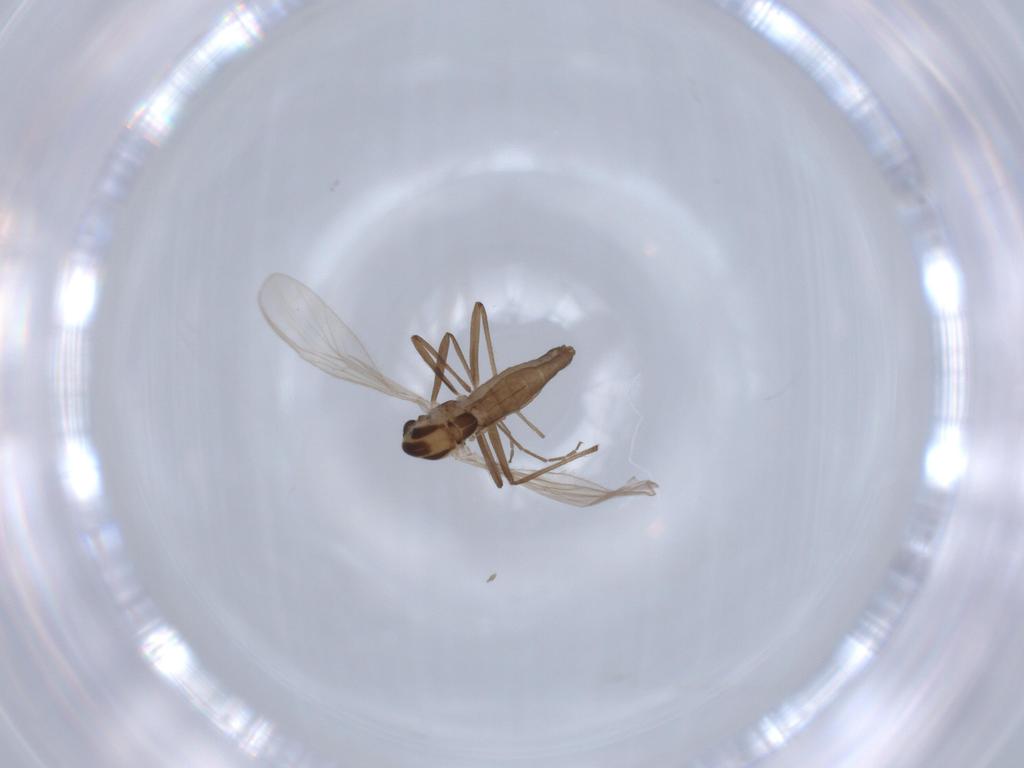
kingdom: Animalia
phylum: Arthropoda
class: Insecta
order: Diptera
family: Chironomidae
